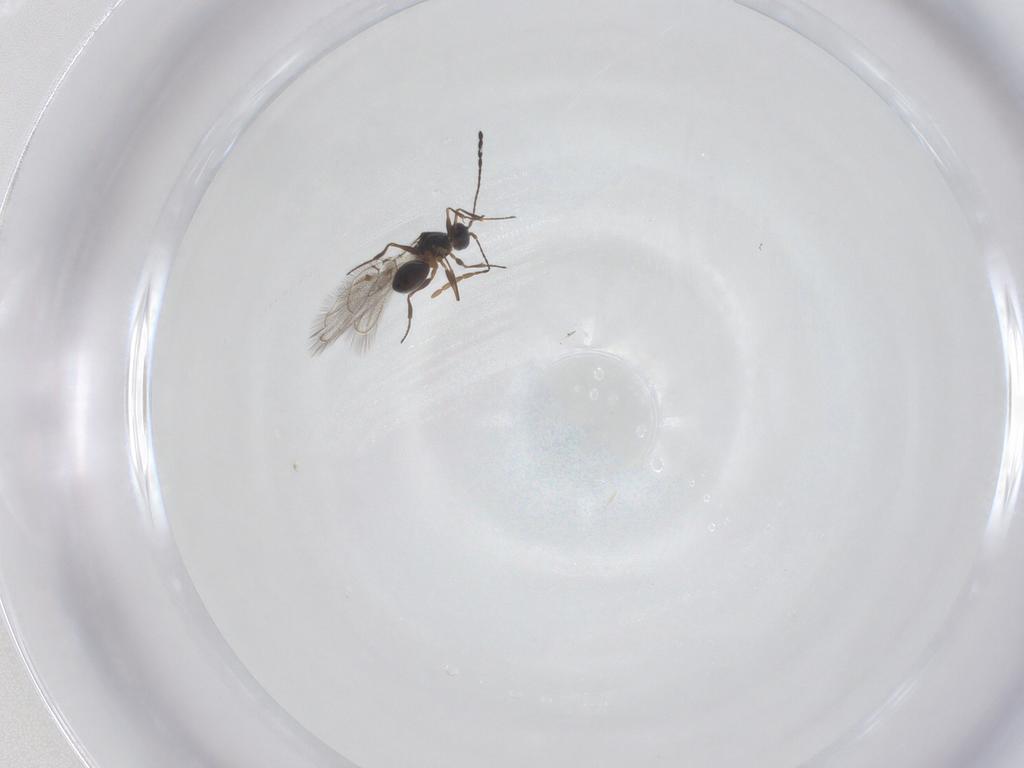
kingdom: Animalia
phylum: Arthropoda
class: Insecta
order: Hymenoptera
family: Figitidae
